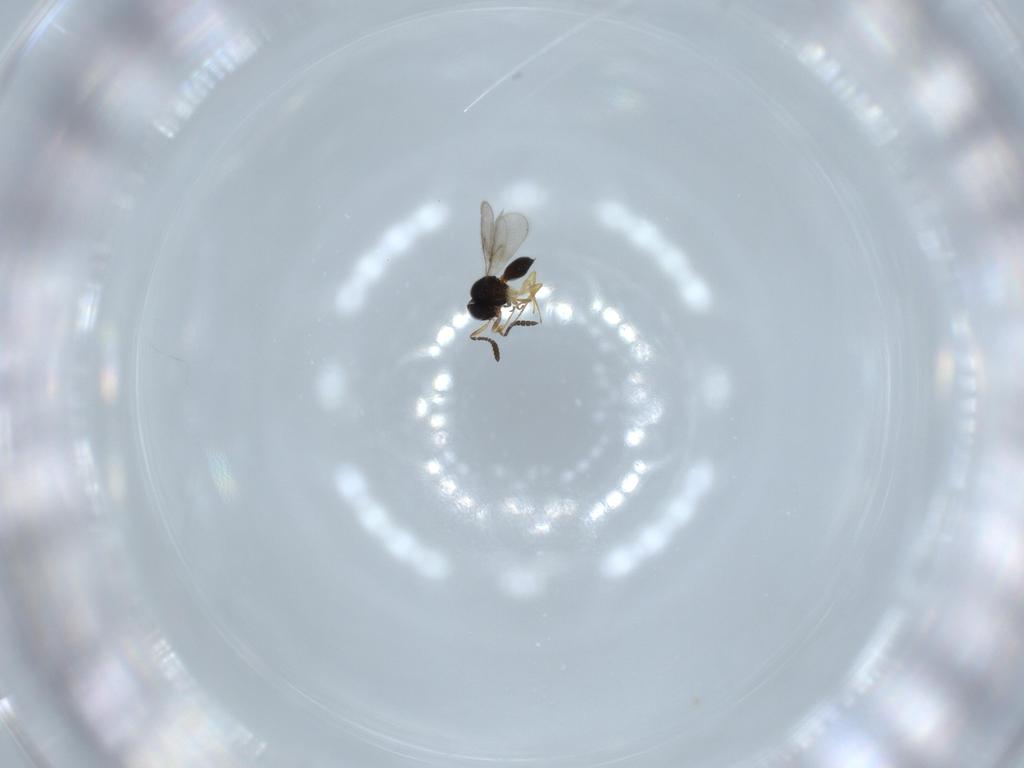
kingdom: Animalia
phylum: Arthropoda
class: Insecta
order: Hymenoptera
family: Scelionidae
